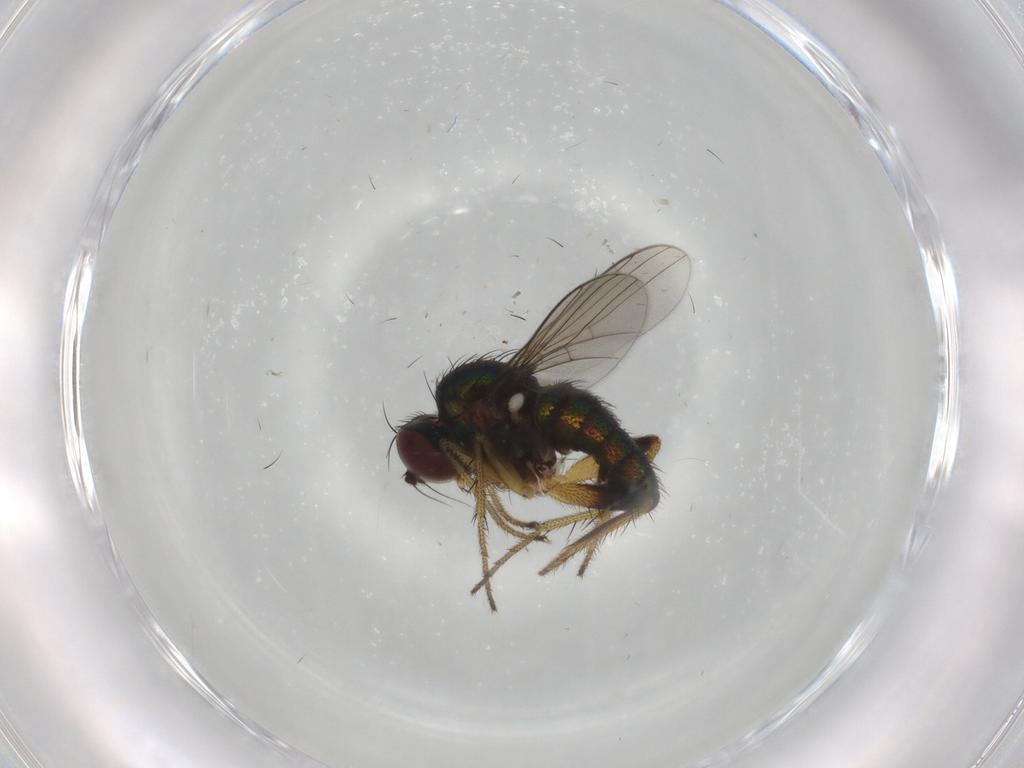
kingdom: Animalia
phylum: Arthropoda
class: Insecta
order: Diptera
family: Dolichopodidae
